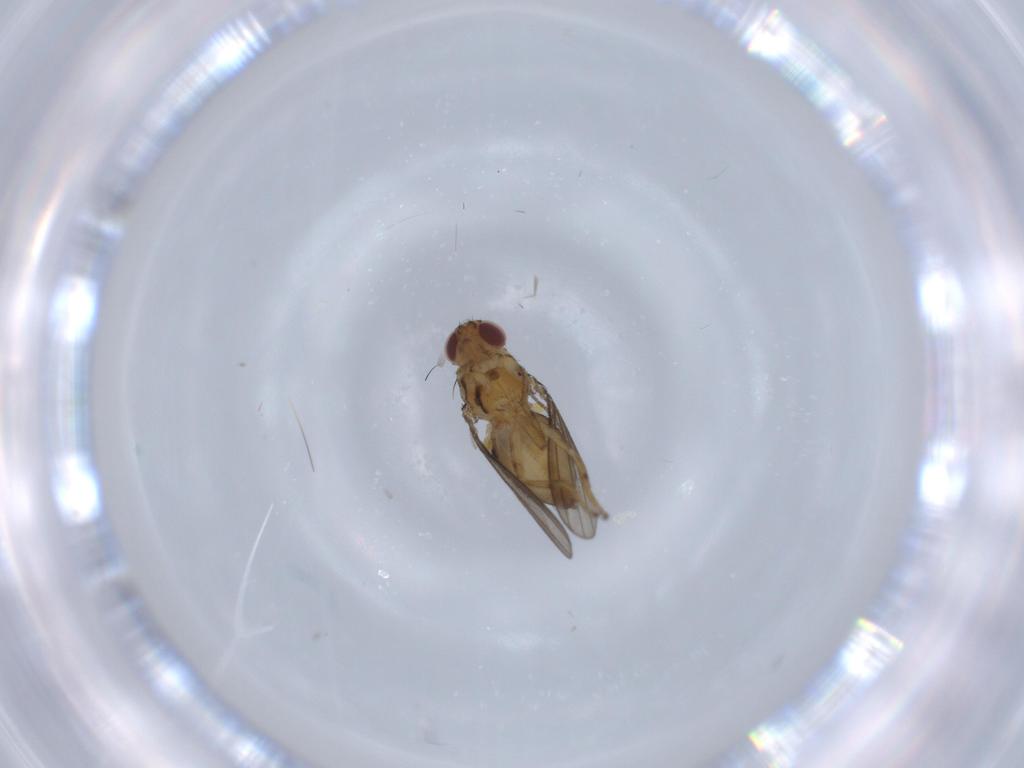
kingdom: Animalia
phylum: Arthropoda
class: Insecta
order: Diptera
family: Chloropidae
